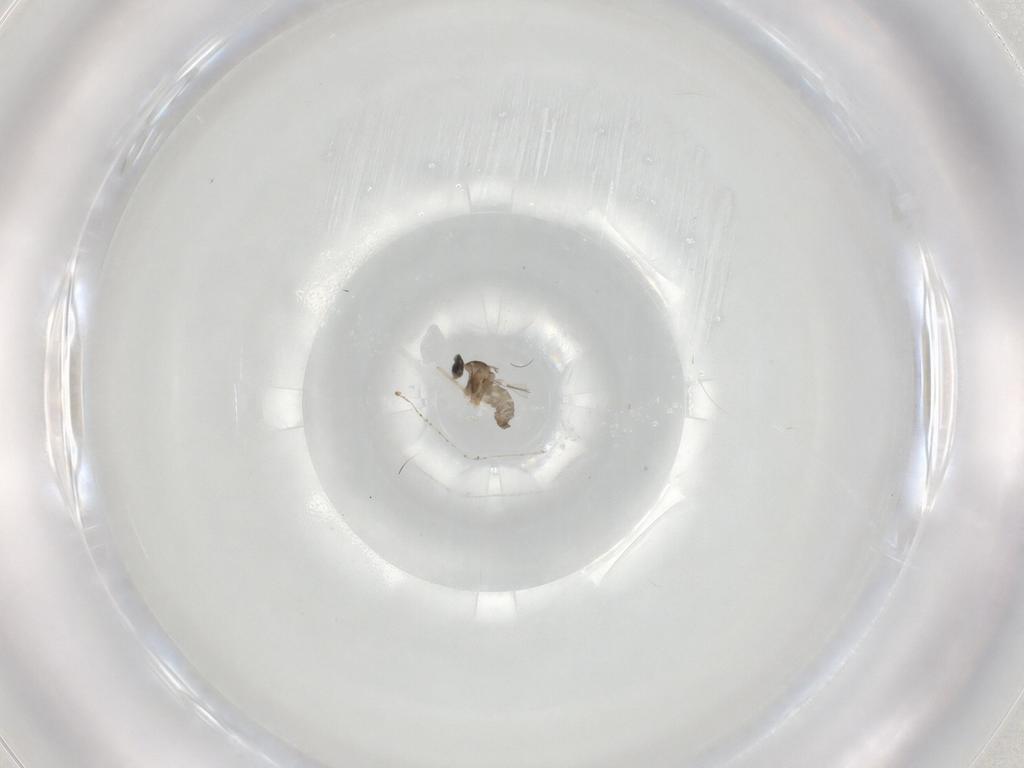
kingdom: Animalia
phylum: Arthropoda
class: Insecta
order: Diptera
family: Cecidomyiidae
